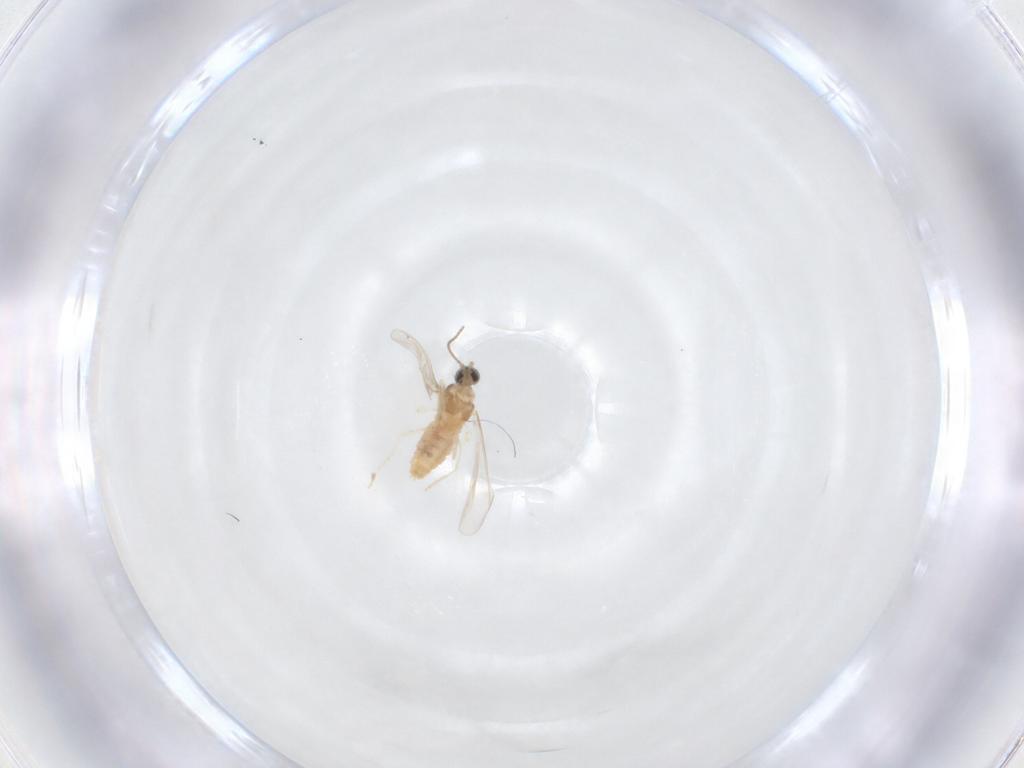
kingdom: Animalia
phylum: Arthropoda
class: Insecta
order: Diptera
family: Cecidomyiidae
